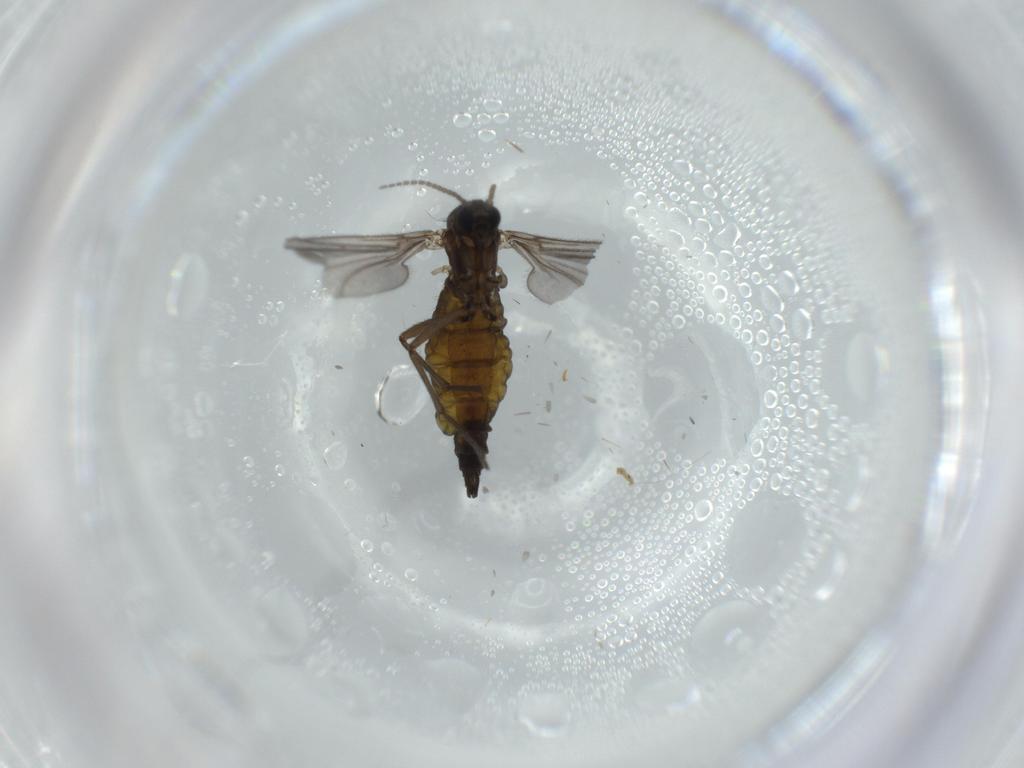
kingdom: Animalia
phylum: Arthropoda
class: Insecta
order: Diptera
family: Sciaridae
